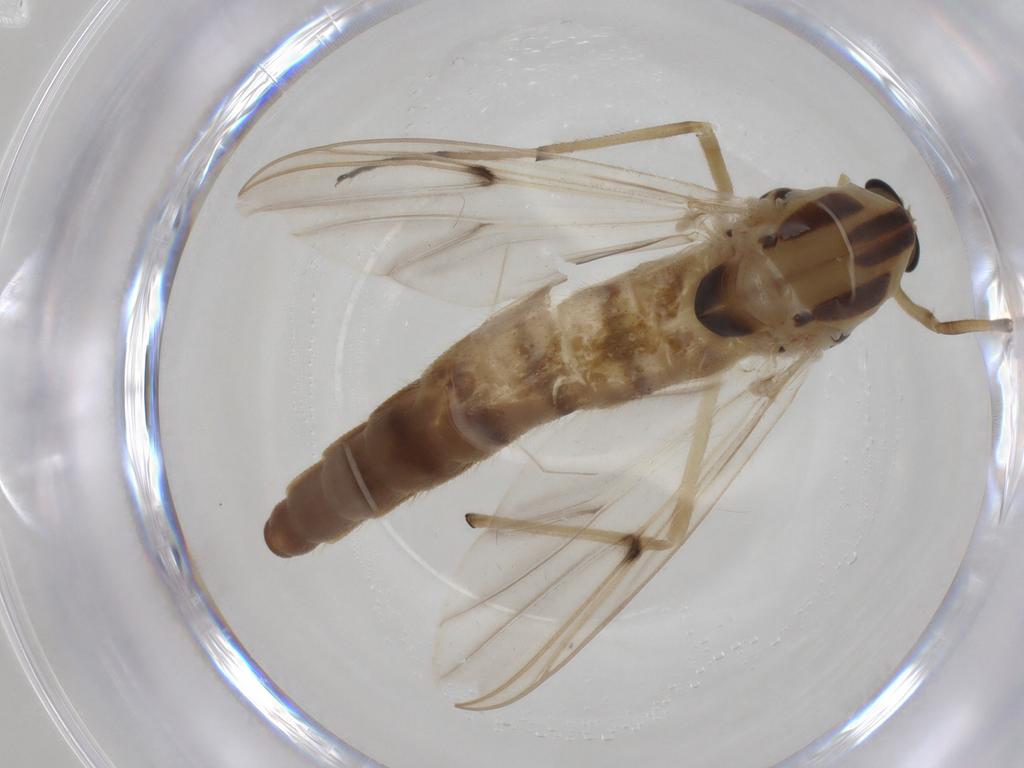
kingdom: Animalia
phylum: Arthropoda
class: Insecta
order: Diptera
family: Chironomidae
